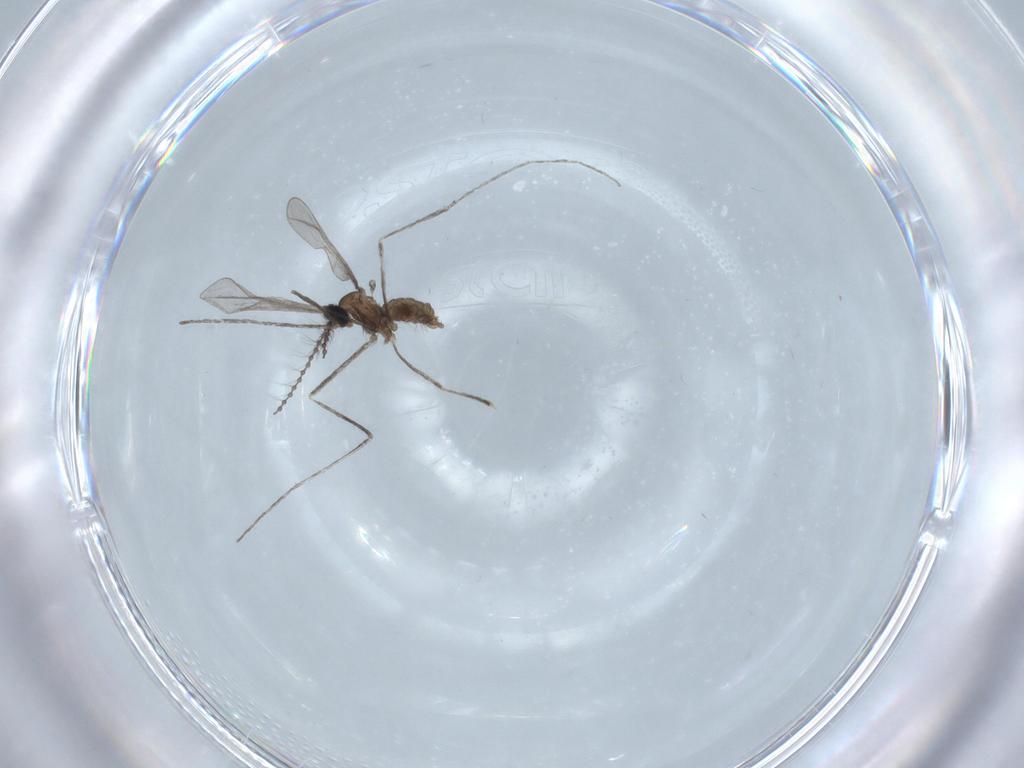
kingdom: Animalia
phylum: Arthropoda
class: Insecta
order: Diptera
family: Cecidomyiidae
